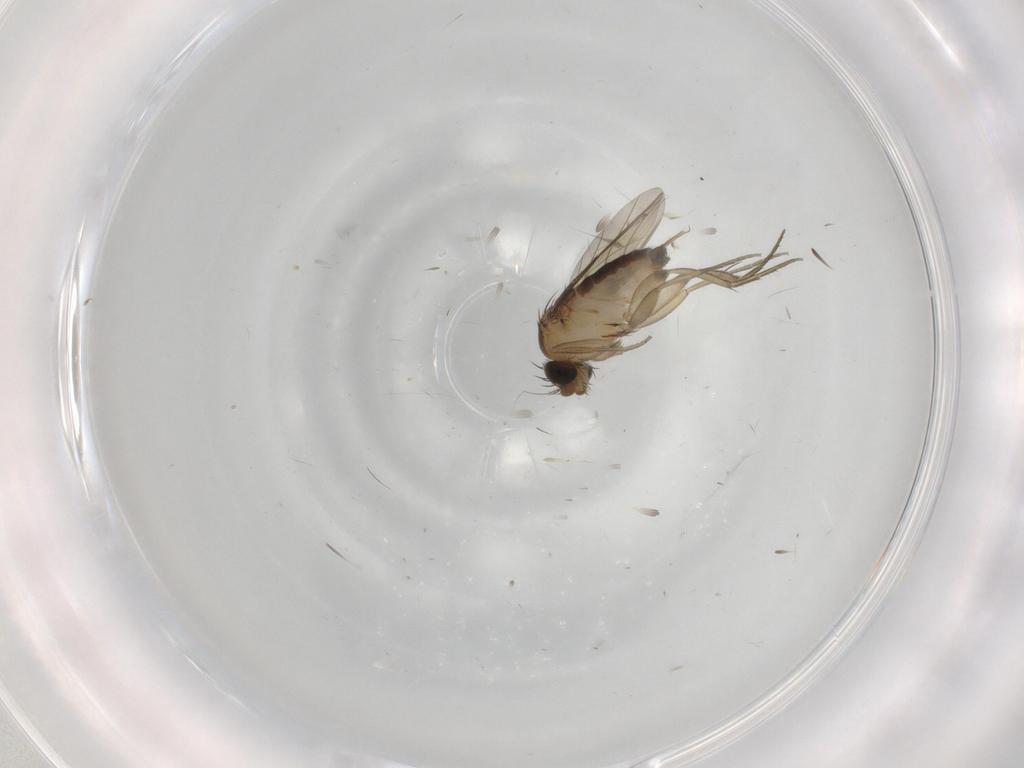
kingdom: Animalia
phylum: Arthropoda
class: Insecta
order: Diptera
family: Phoridae
